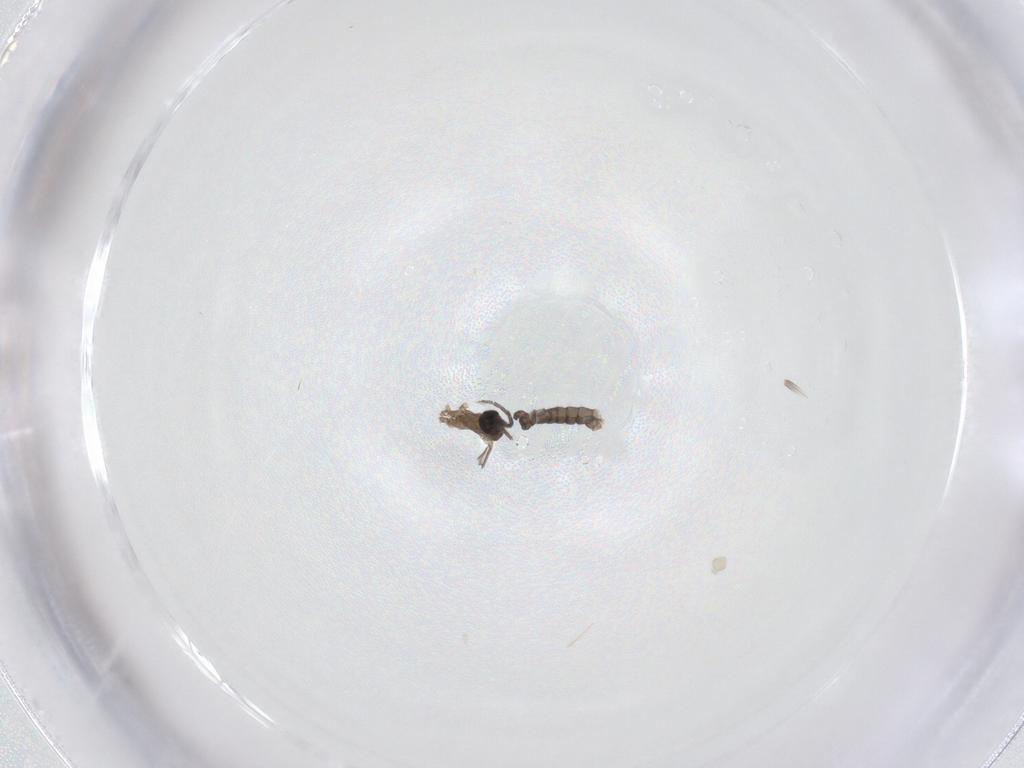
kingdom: Animalia
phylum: Arthropoda
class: Insecta
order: Diptera
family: Sciaridae
